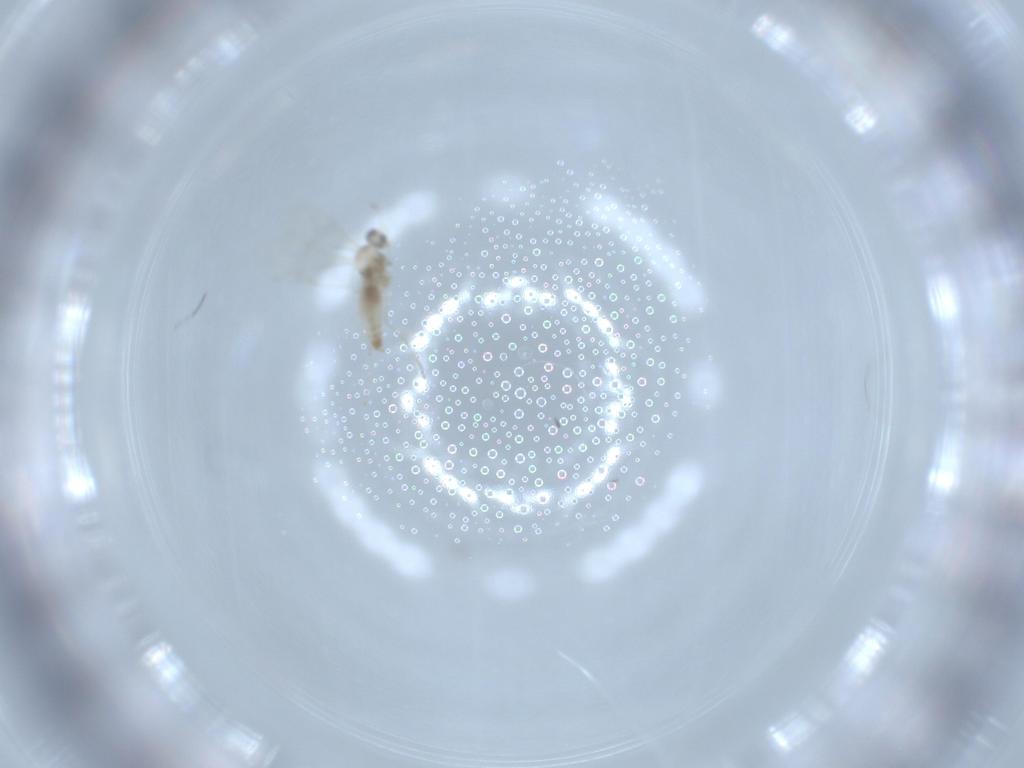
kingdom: Animalia
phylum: Arthropoda
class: Insecta
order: Diptera
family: Cecidomyiidae
